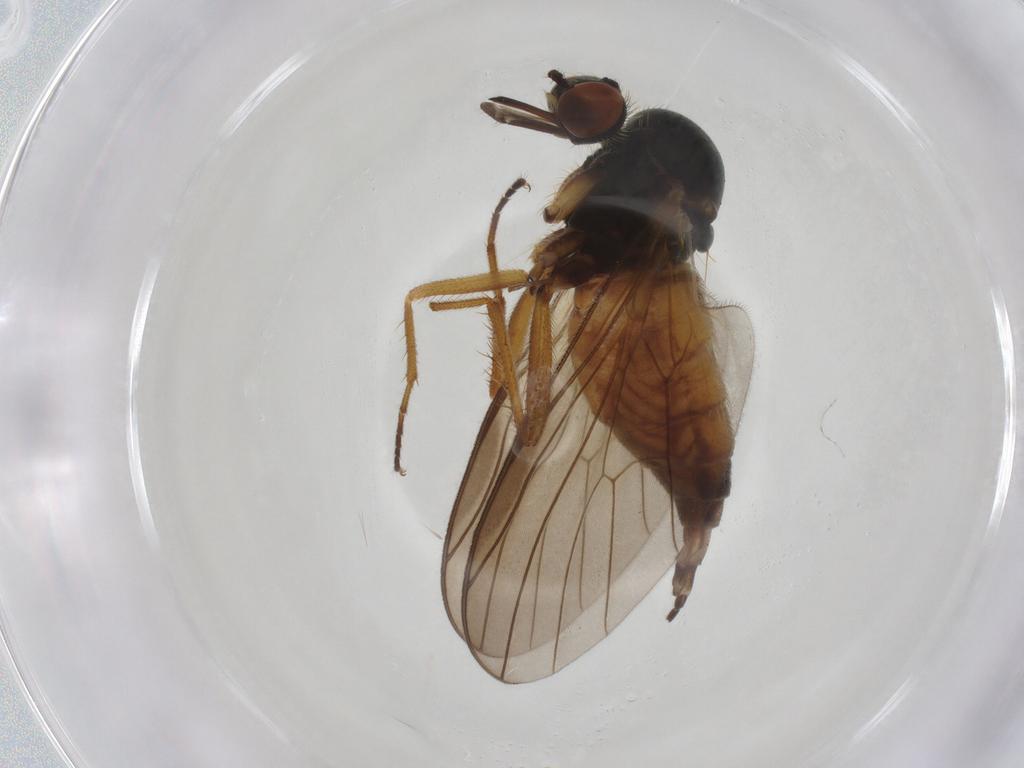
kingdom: Animalia
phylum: Arthropoda
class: Insecta
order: Diptera
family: Empididae
